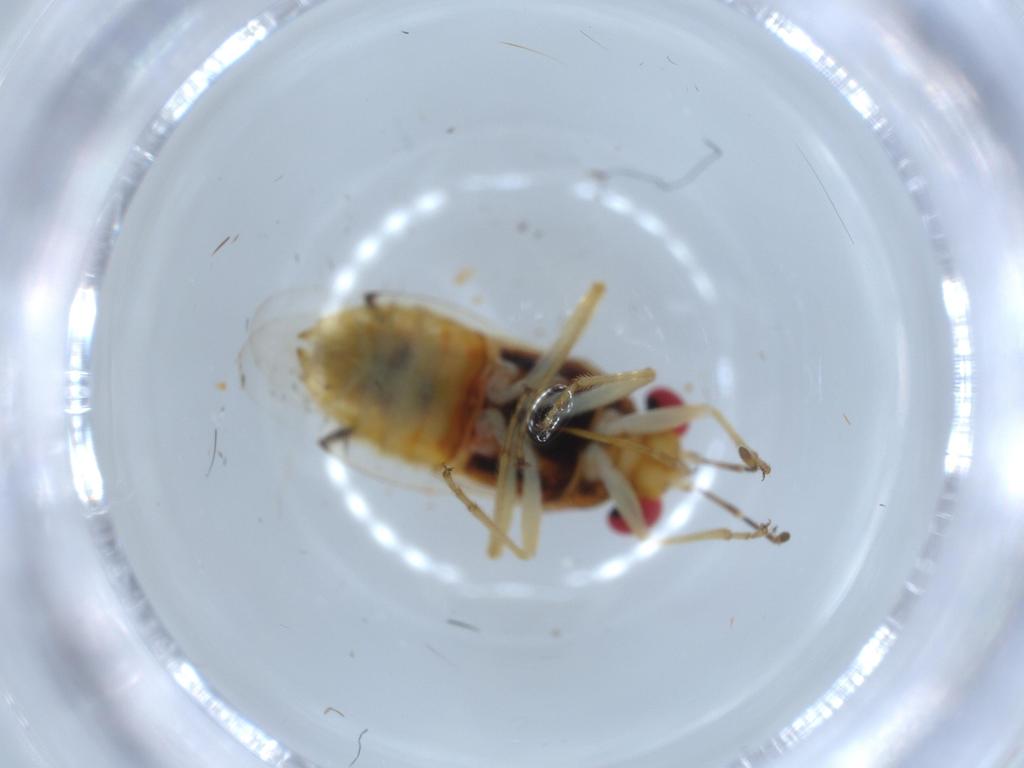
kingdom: Animalia
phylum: Arthropoda
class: Insecta
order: Hemiptera
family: Geocoridae
